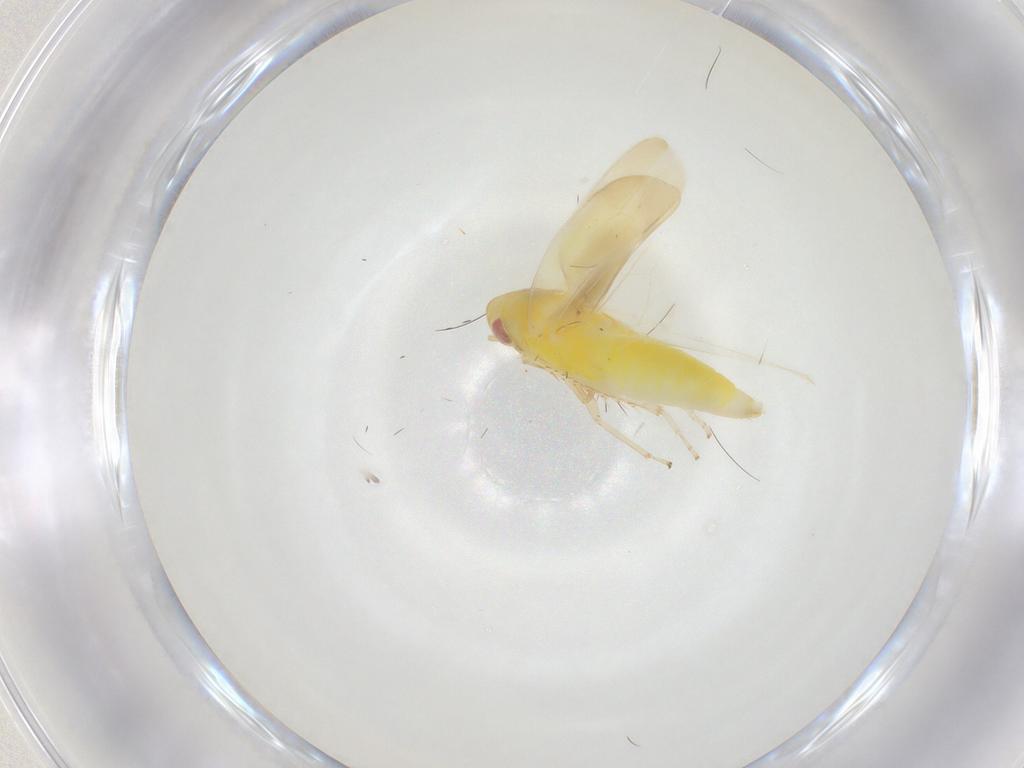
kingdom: Animalia
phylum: Arthropoda
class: Insecta
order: Hemiptera
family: Cicadellidae
